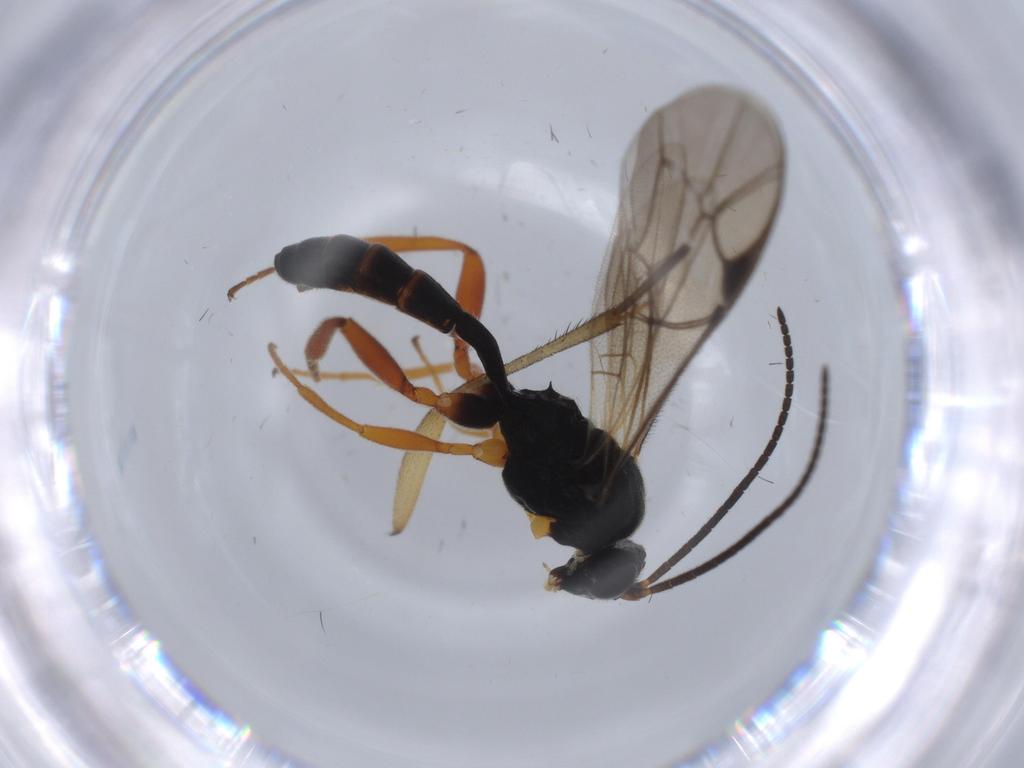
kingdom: Animalia
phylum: Arthropoda
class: Insecta
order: Hymenoptera
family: Ichneumonidae
